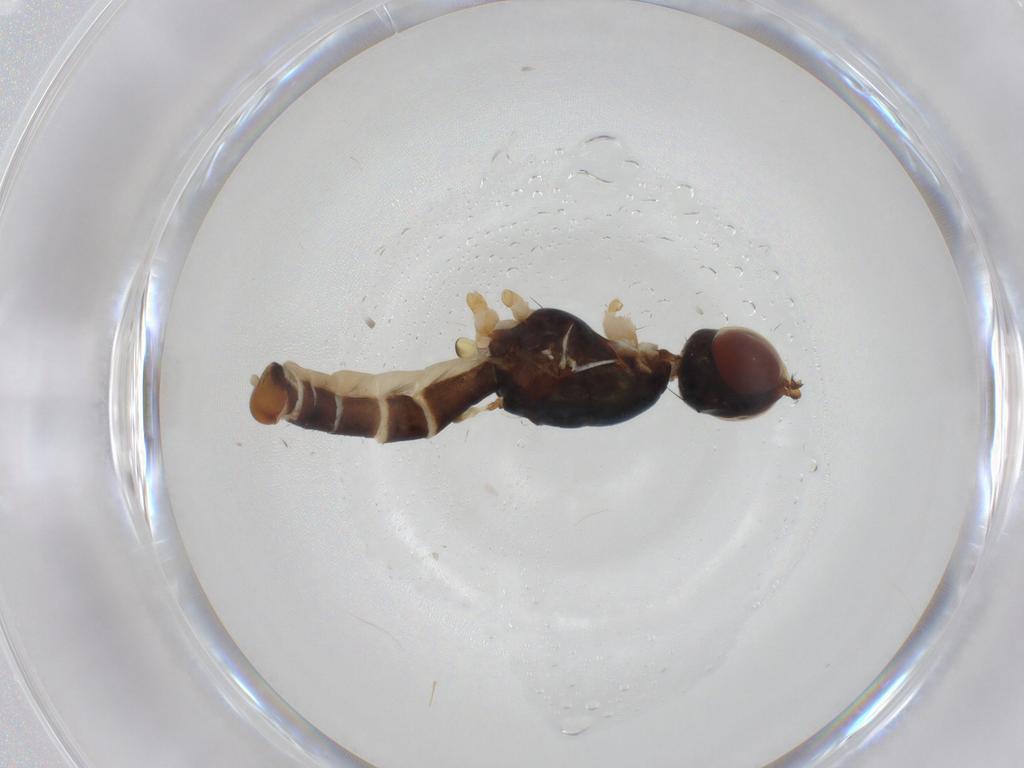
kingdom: Animalia
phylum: Arthropoda
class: Insecta
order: Diptera
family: Micropezidae
